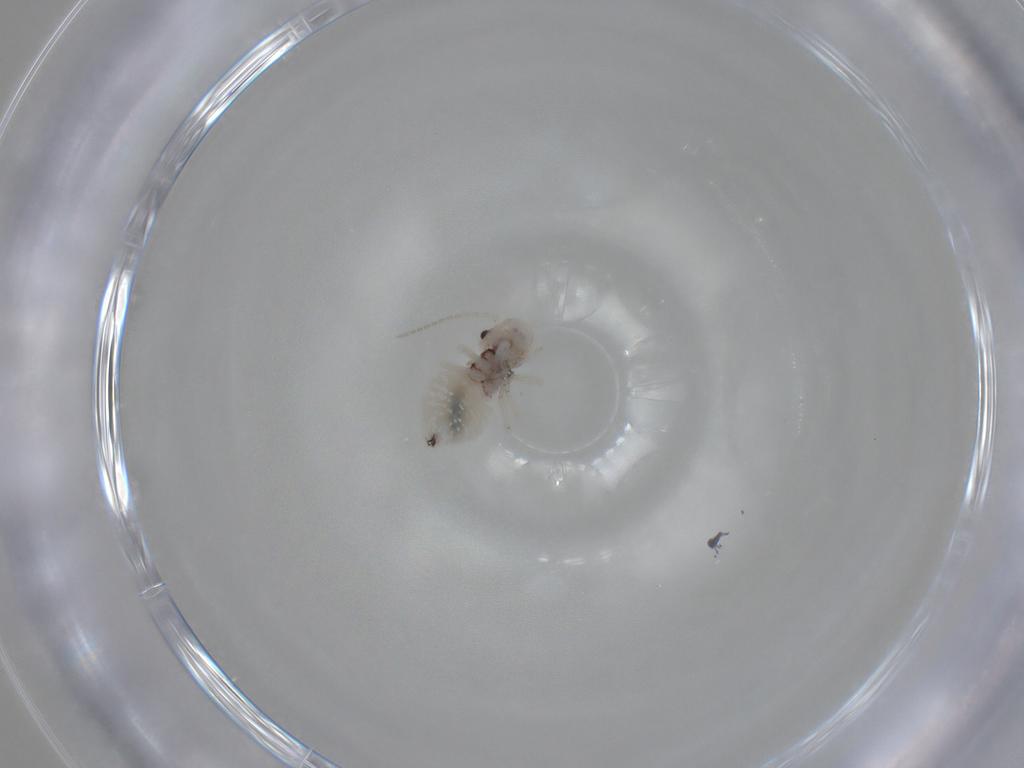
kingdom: Animalia
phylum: Arthropoda
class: Insecta
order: Psocodea
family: Amphipsocidae
